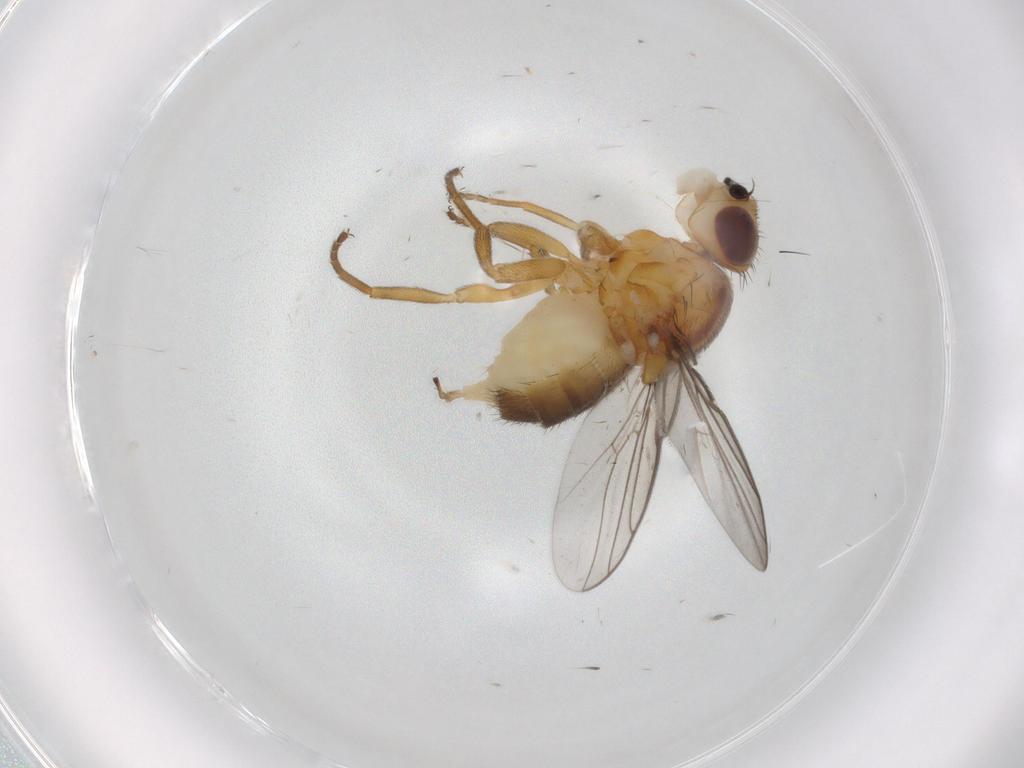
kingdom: Animalia
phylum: Arthropoda
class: Insecta
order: Diptera
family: Chloropidae
